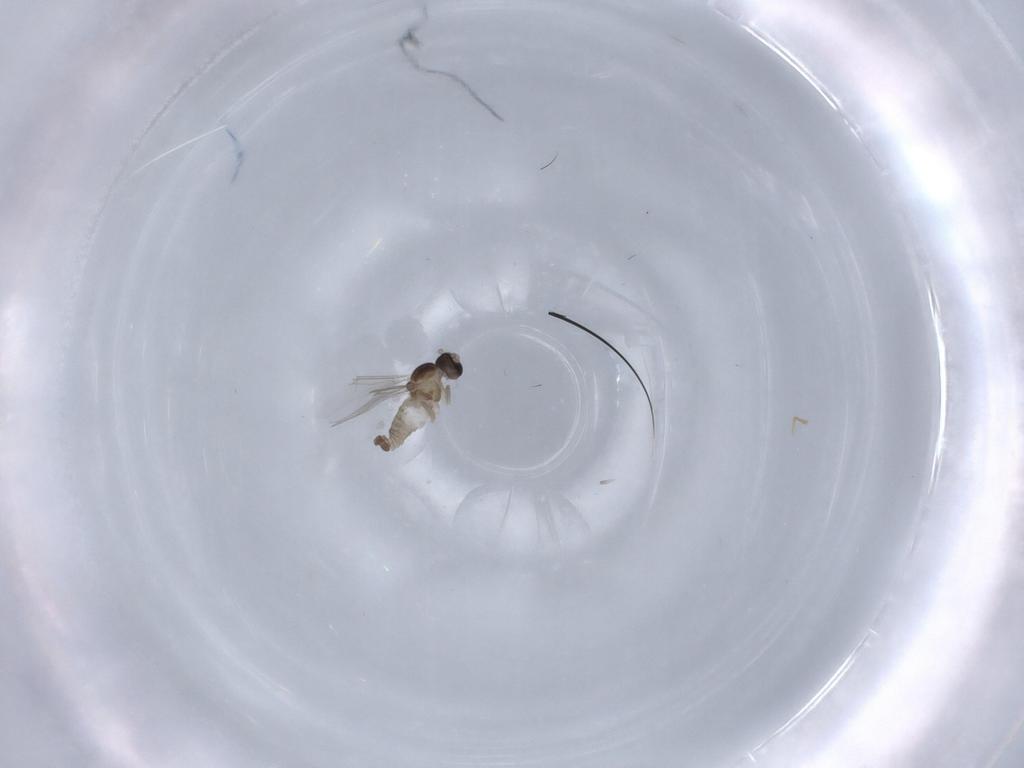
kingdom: Animalia
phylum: Arthropoda
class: Insecta
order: Diptera
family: Cecidomyiidae
